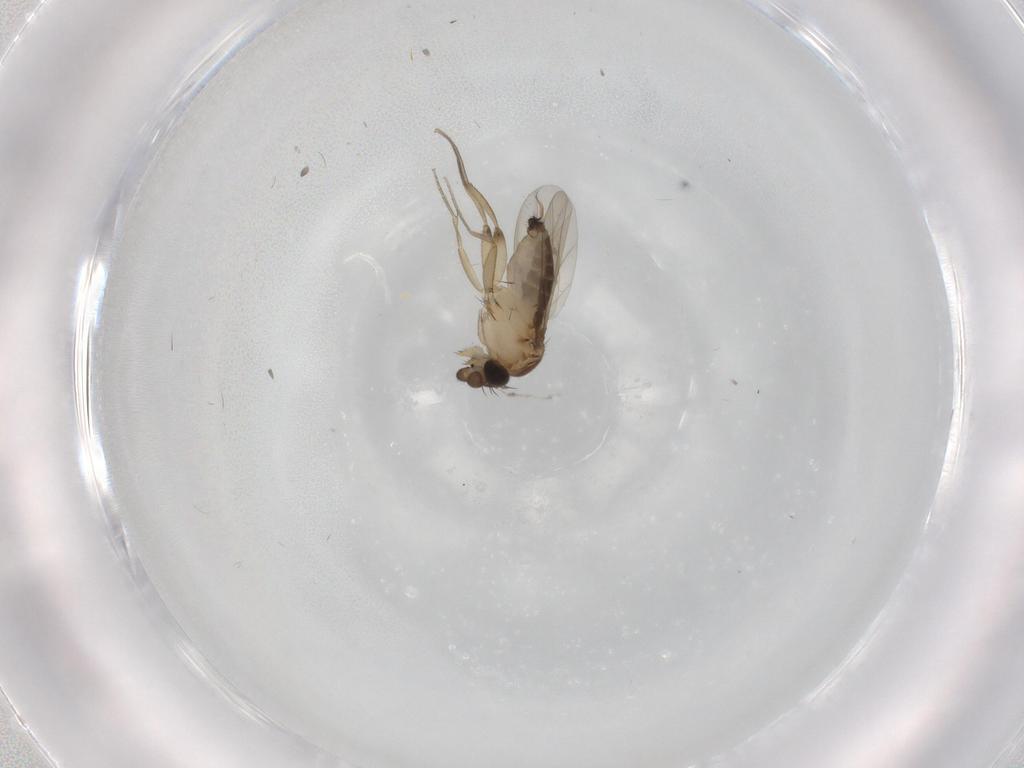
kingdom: Animalia
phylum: Arthropoda
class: Insecta
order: Diptera
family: Phoridae
